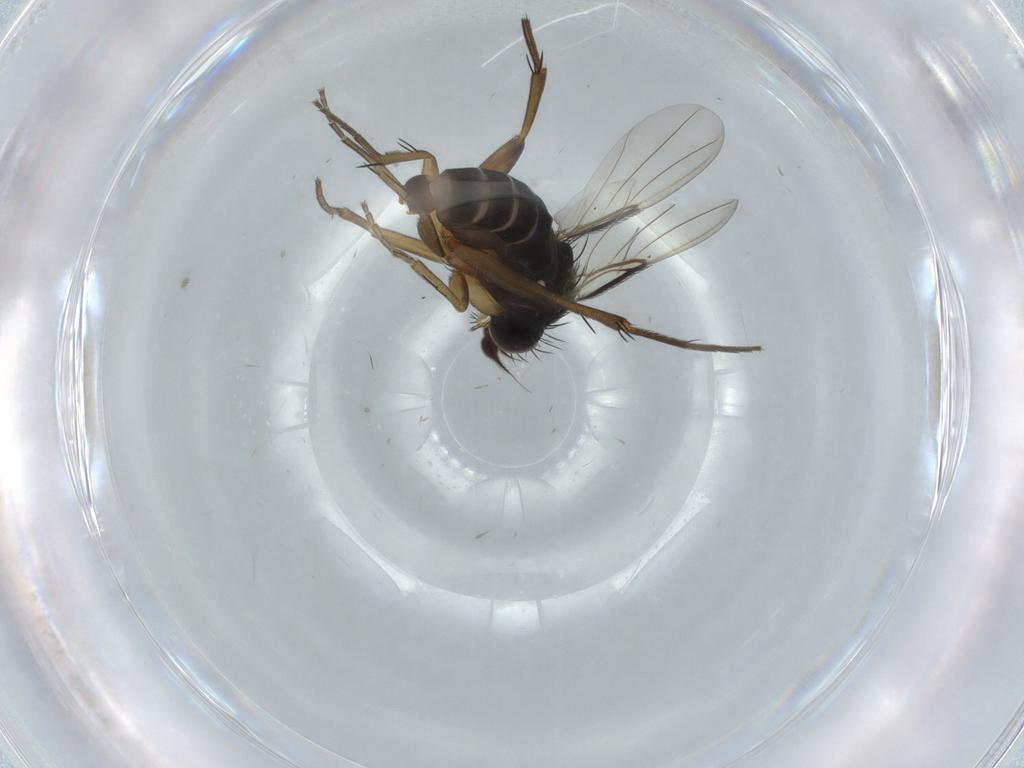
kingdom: Animalia
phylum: Arthropoda
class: Insecta
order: Diptera
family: Phoridae
